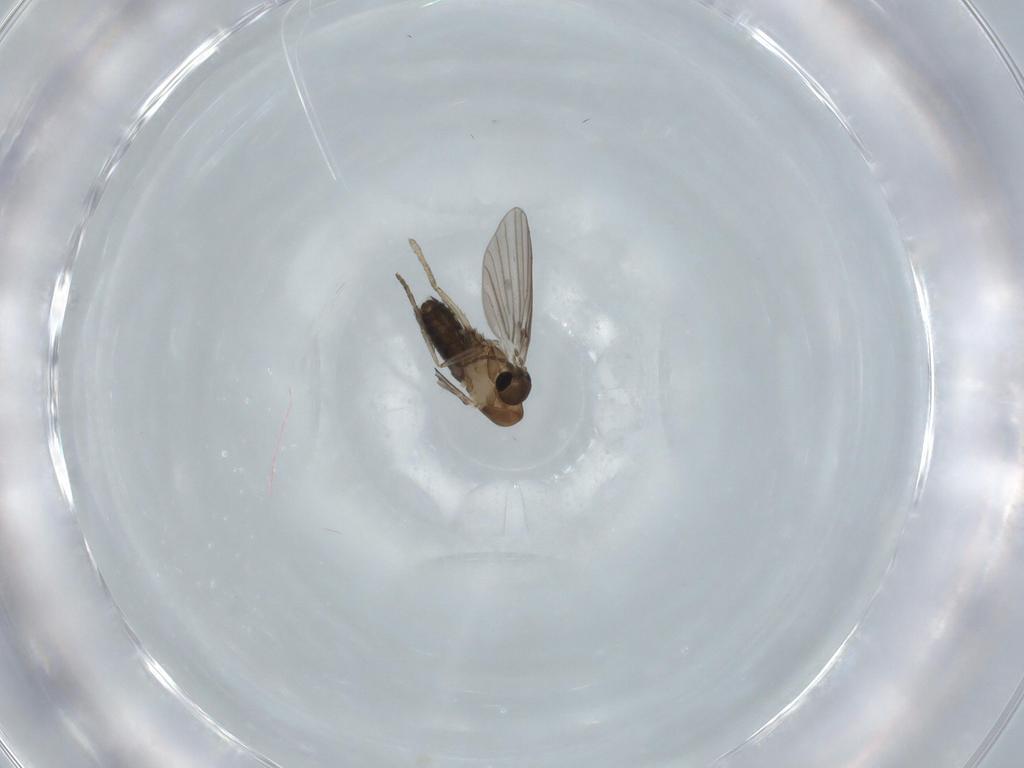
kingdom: Animalia
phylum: Arthropoda
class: Insecta
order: Diptera
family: Psychodidae
